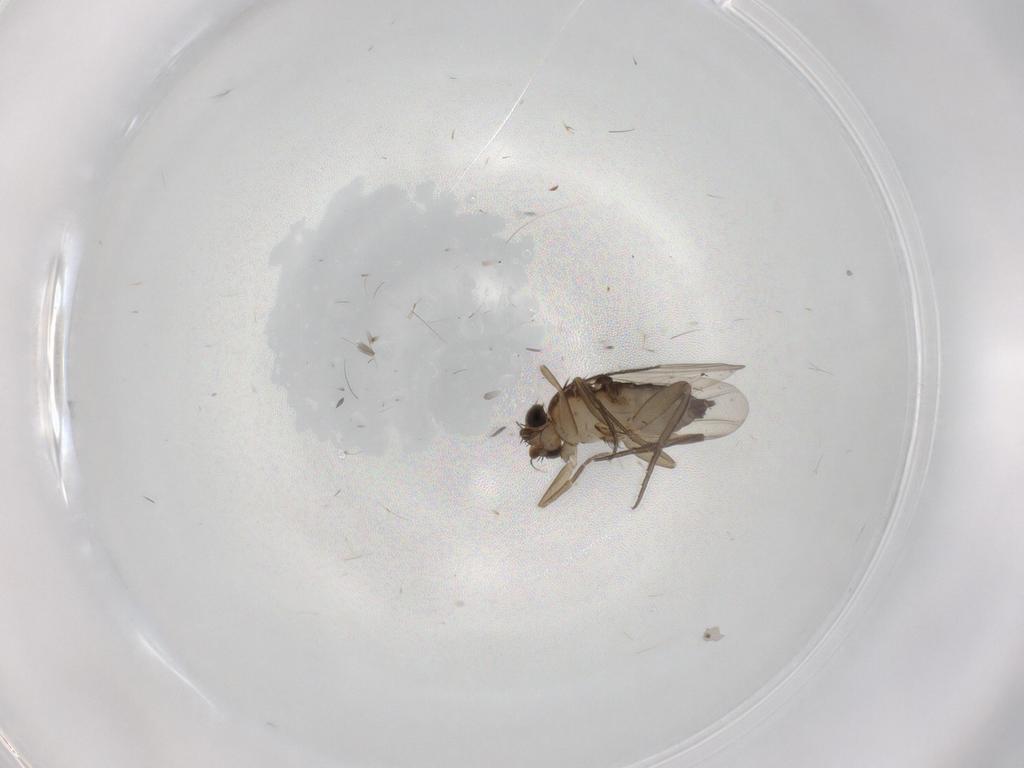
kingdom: Animalia
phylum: Arthropoda
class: Insecta
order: Diptera
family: Phoridae
